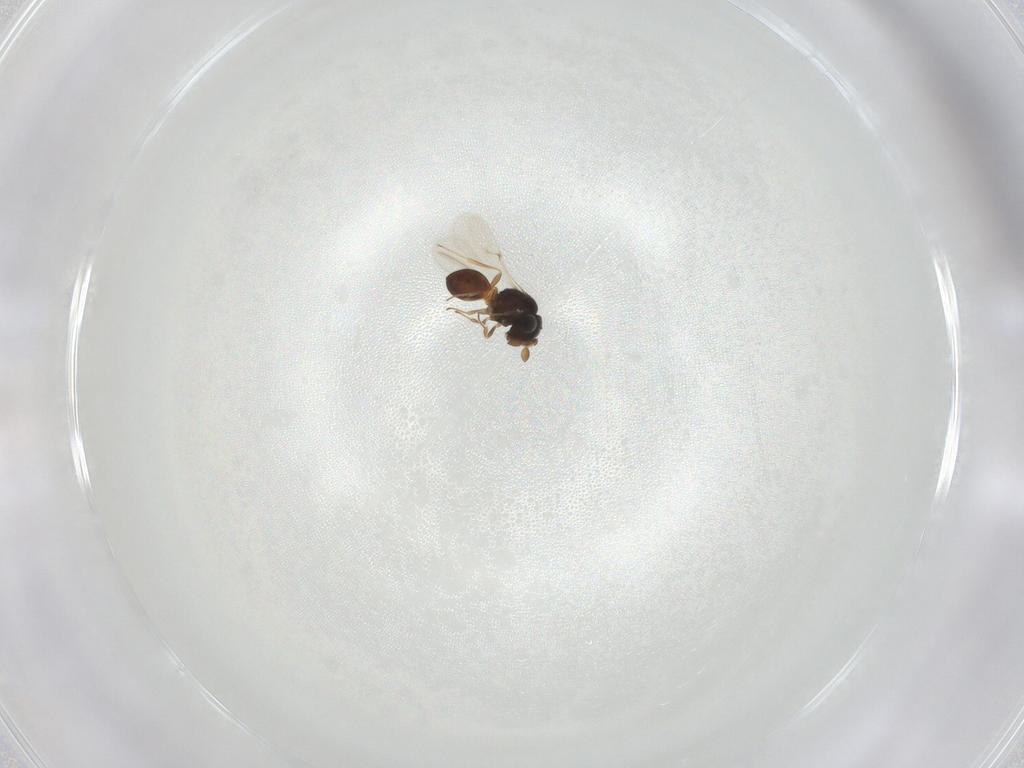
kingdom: Animalia
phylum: Arthropoda
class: Insecta
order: Hymenoptera
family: Scelionidae
